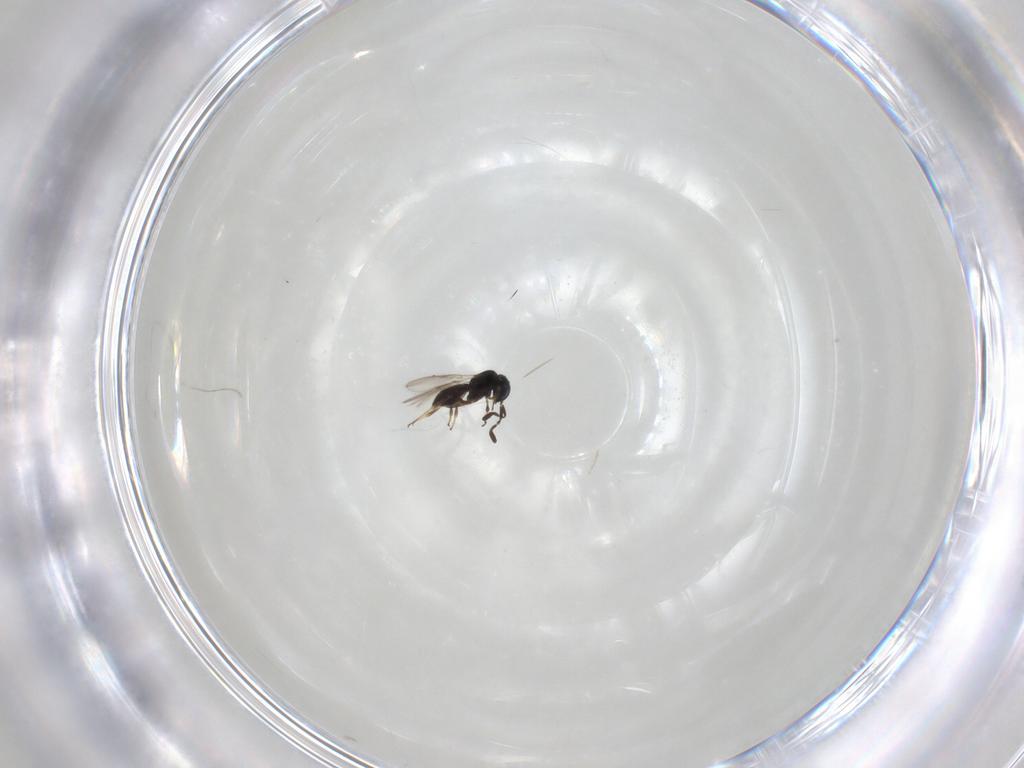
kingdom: Animalia
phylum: Arthropoda
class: Insecta
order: Hymenoptera
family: Scelionidae
